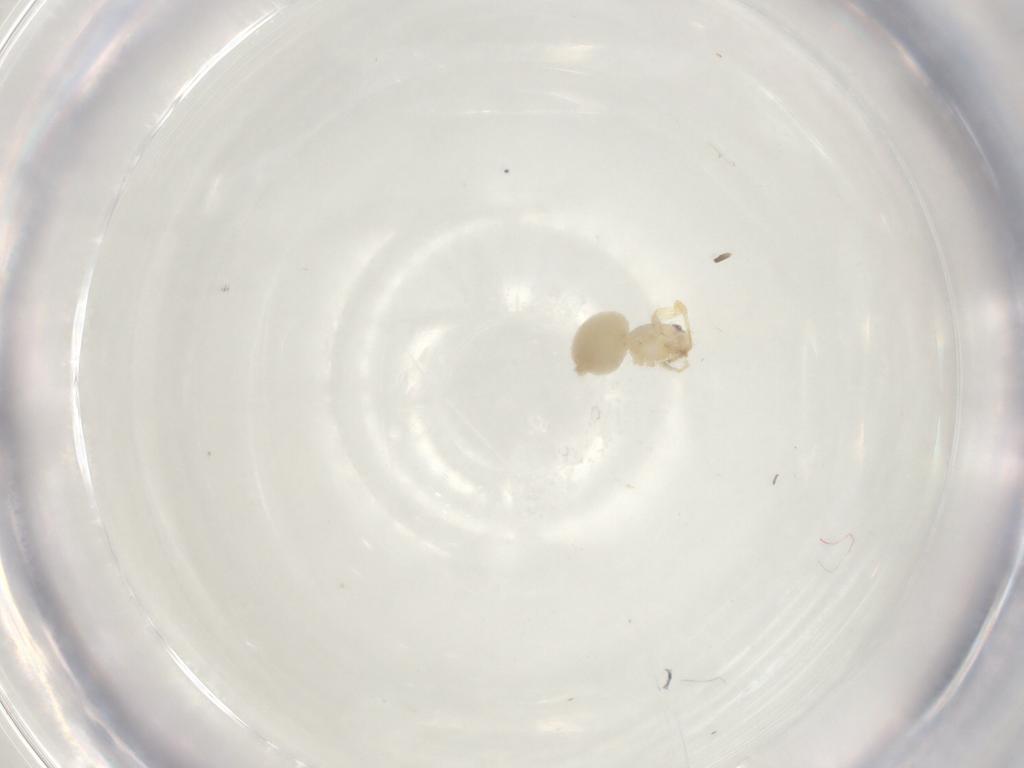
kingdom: Animalia
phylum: Arthropoda
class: Arachnida
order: Araneae
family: Oonopidae
